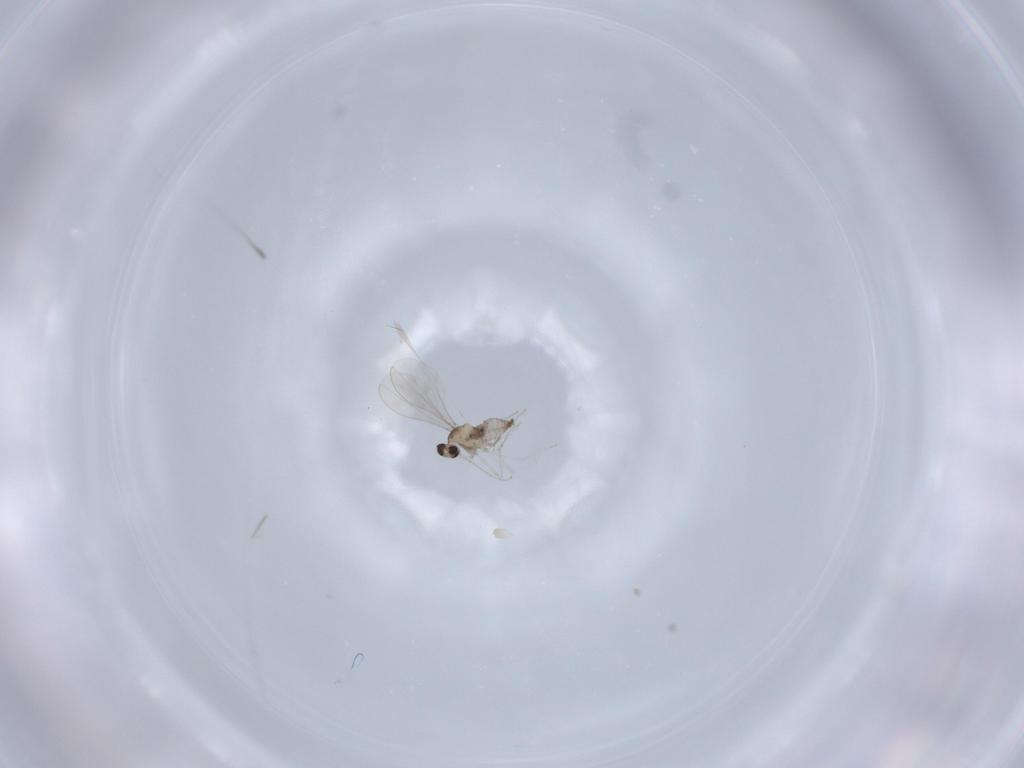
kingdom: Animalia
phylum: Arthropoda
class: Insecta
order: Diptera
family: Cecidomyiidae
